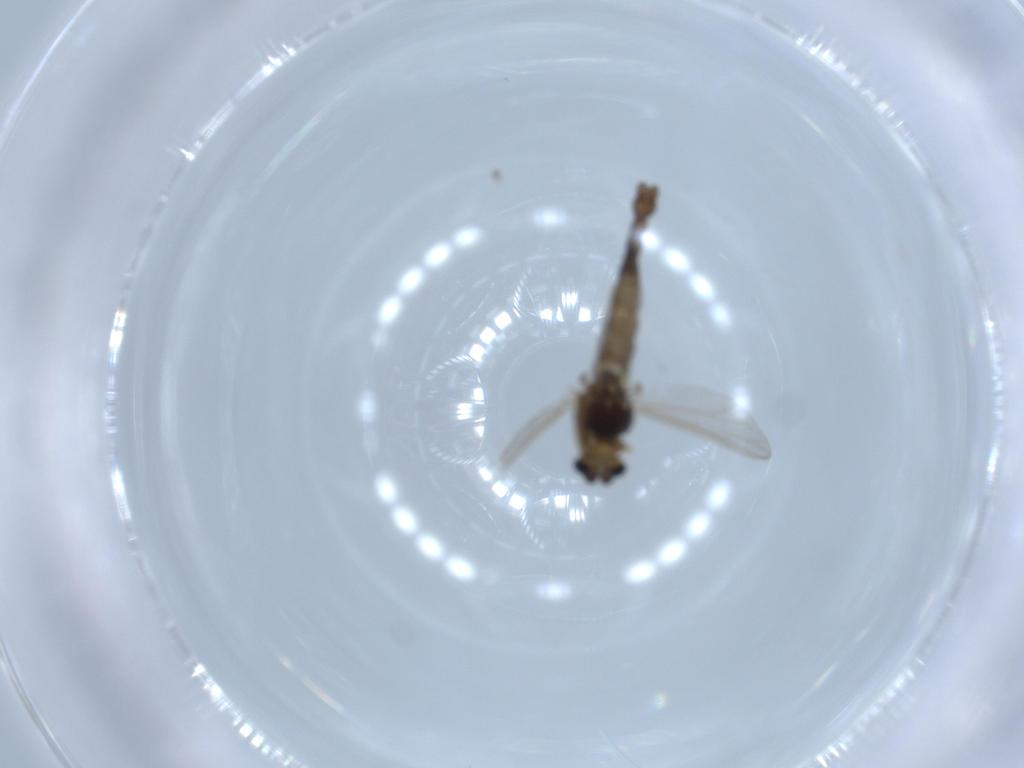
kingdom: Animalia
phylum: Arthropoda
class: Insecta
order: Diptera
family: Chironomidae
